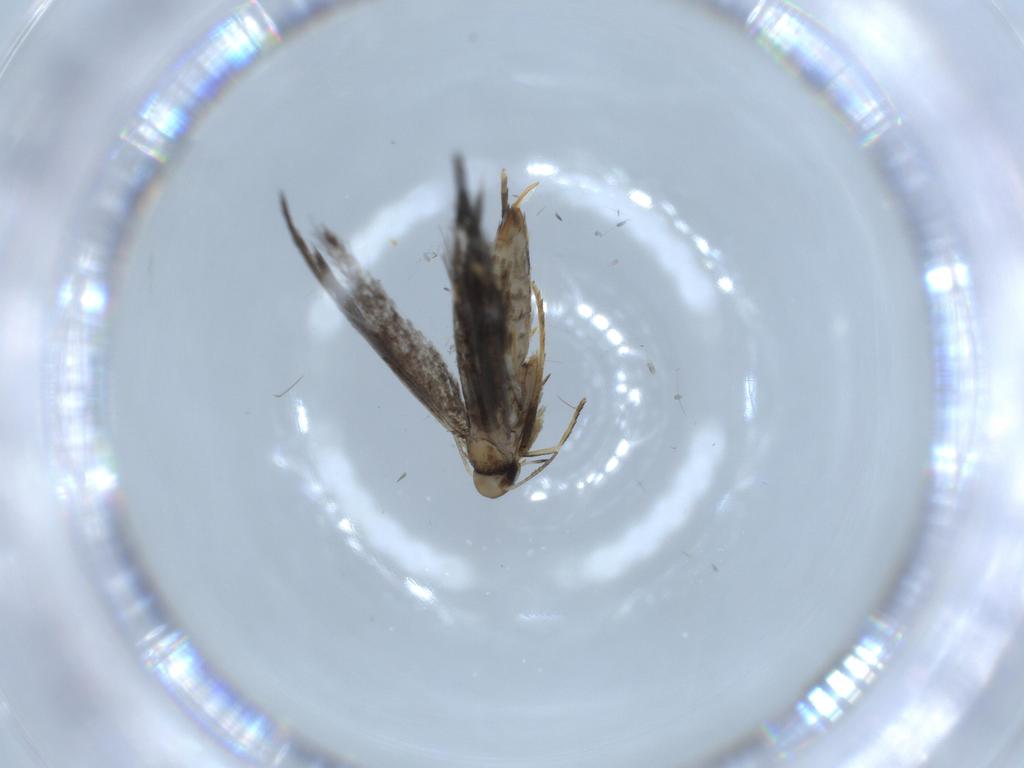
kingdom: Animalia
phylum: Arthropoda
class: Insecta
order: Lepidoptera
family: Heliozelidae
